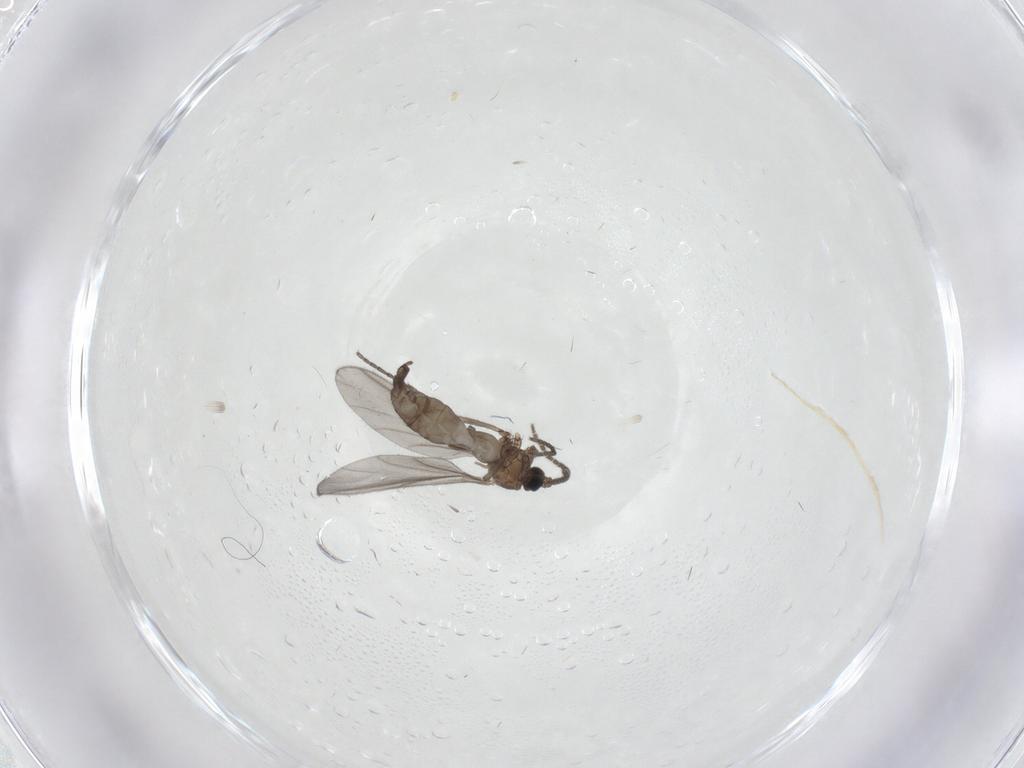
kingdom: Animalia
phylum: Arthropoda
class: Insecta
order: Diptera
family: Sciaridae
